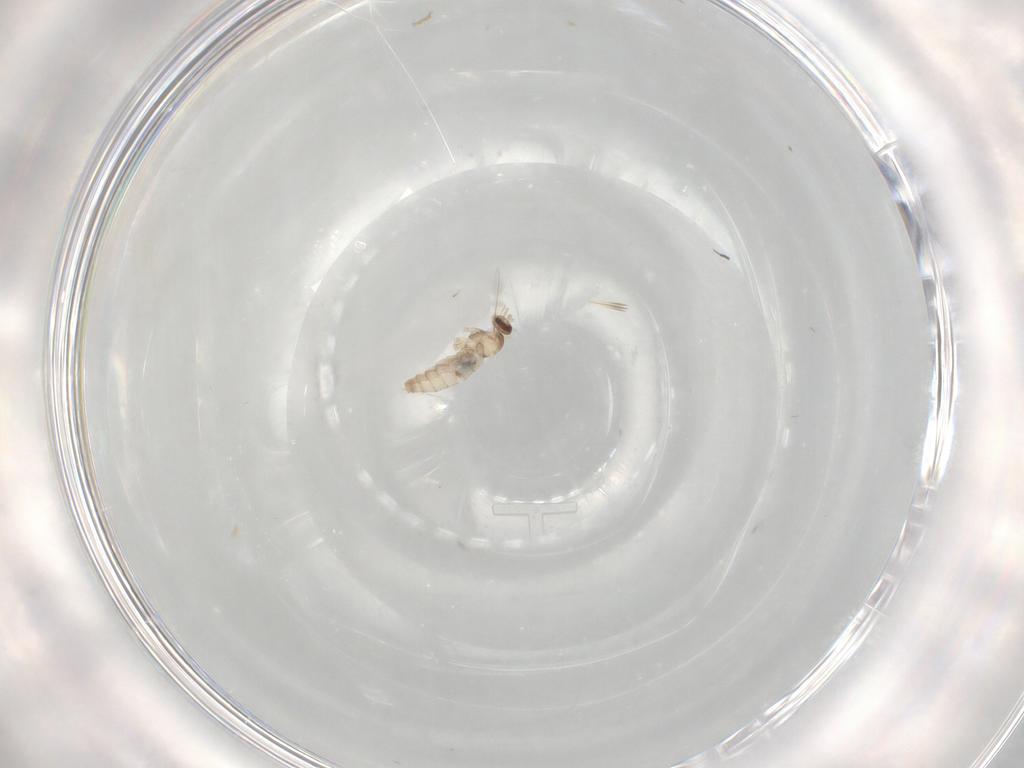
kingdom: Animalia
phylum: Arthropoda
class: Insecta
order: Diptera
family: Cecidomyiidae
